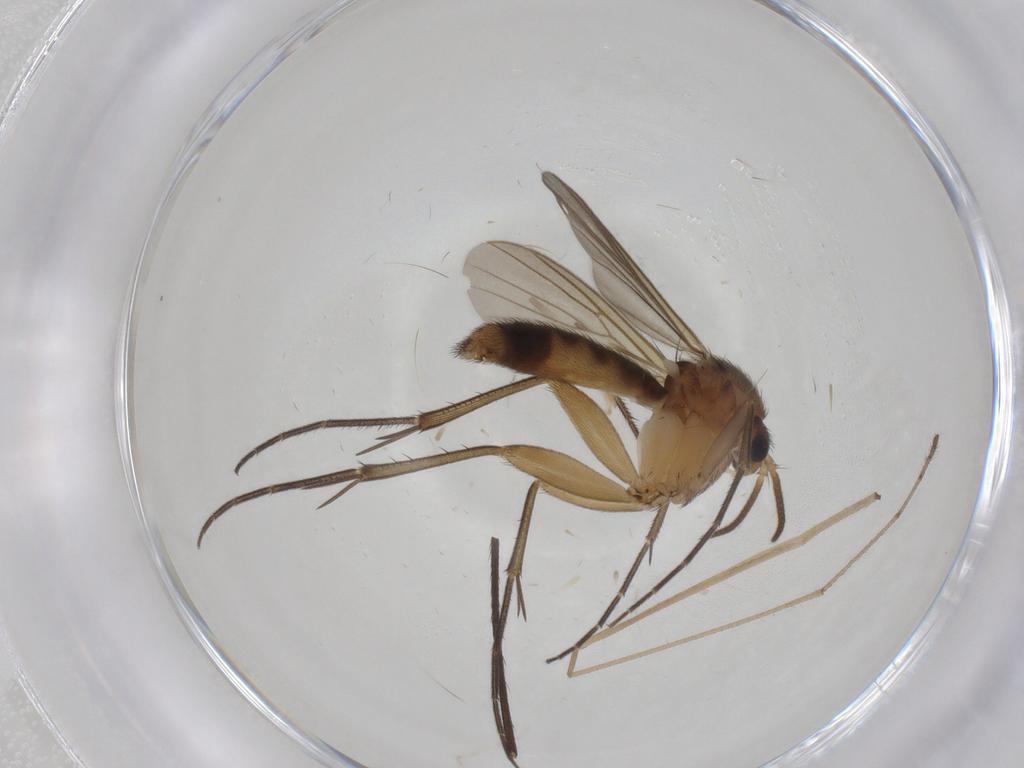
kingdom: Animalia
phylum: Arthropoda
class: Insecta
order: Diptera
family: Limoniidae
